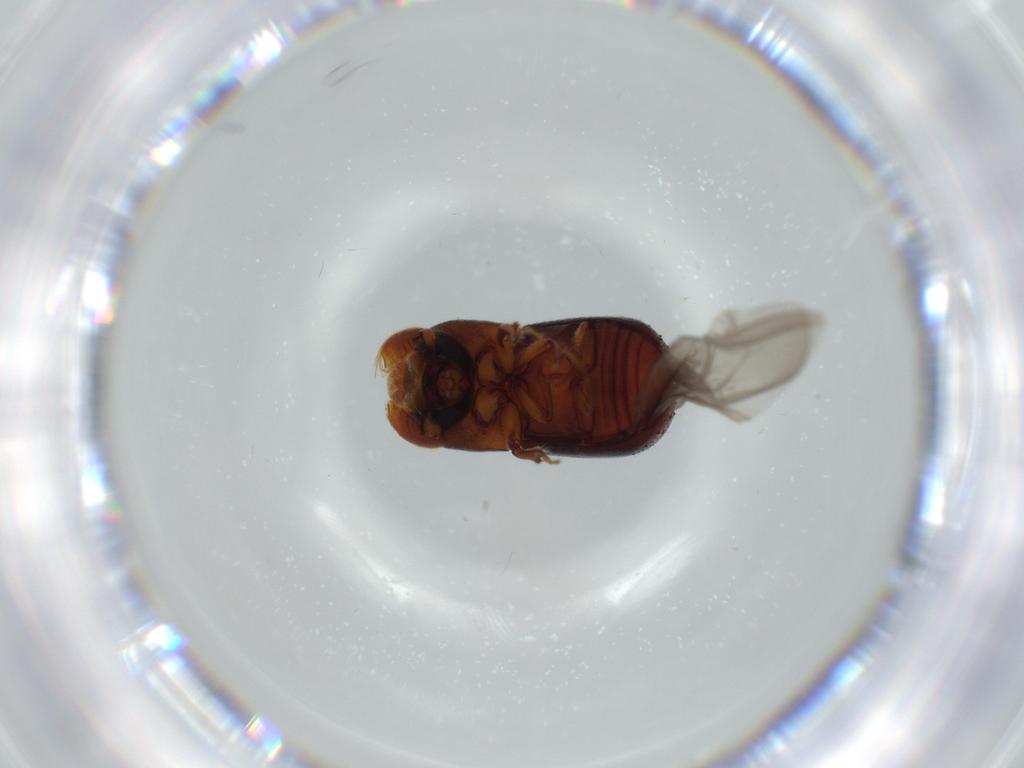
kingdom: Animalia
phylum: Arthropoda
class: Insecta
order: Coleoptera
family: Chrysomelidae
